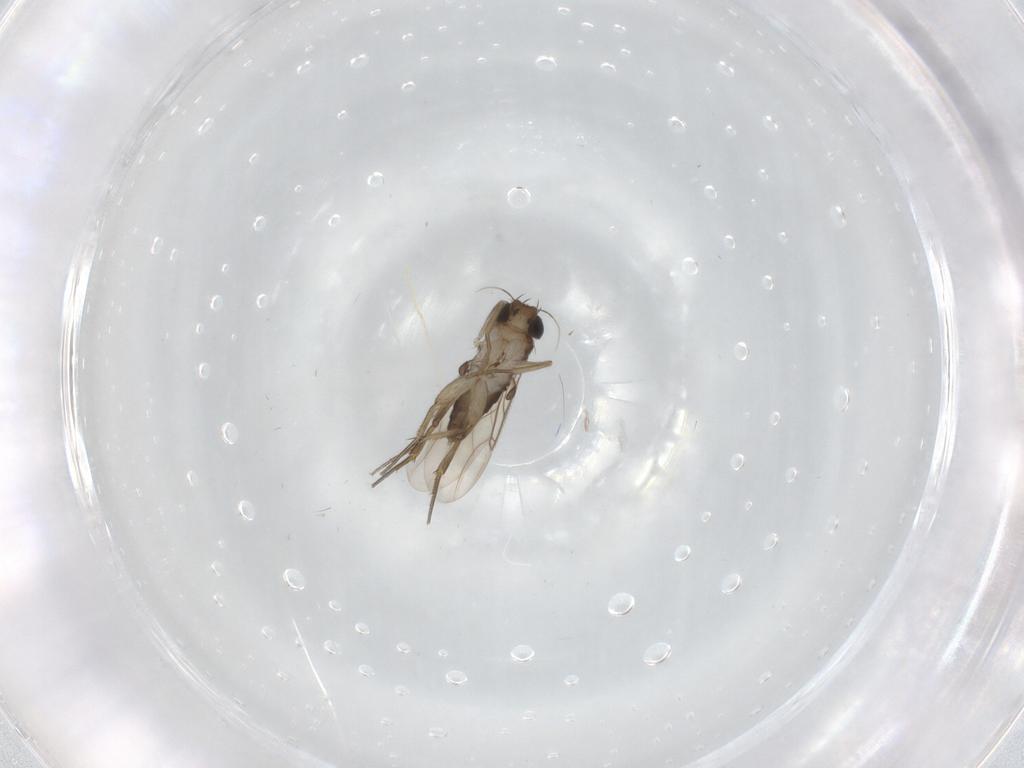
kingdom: Animalia
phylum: Arthropoda
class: Insecta
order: Diptera
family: Phoridae
